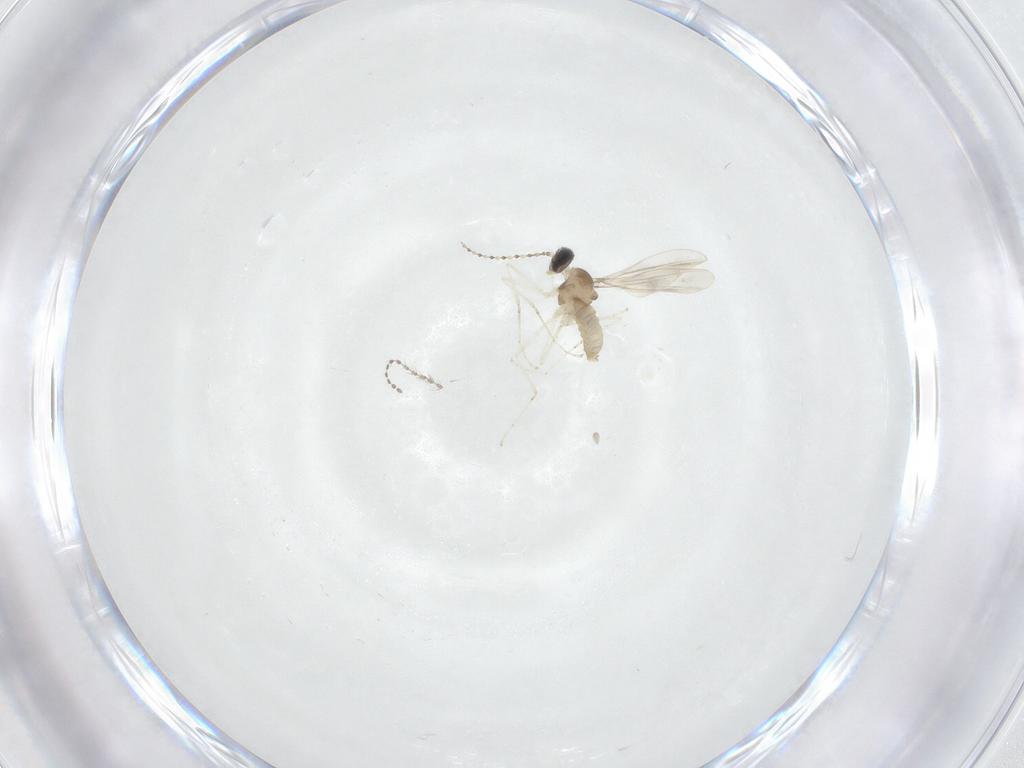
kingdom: Animalia
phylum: Arthropoda
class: Insecta
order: Diptera
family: Cecidomyiidae
